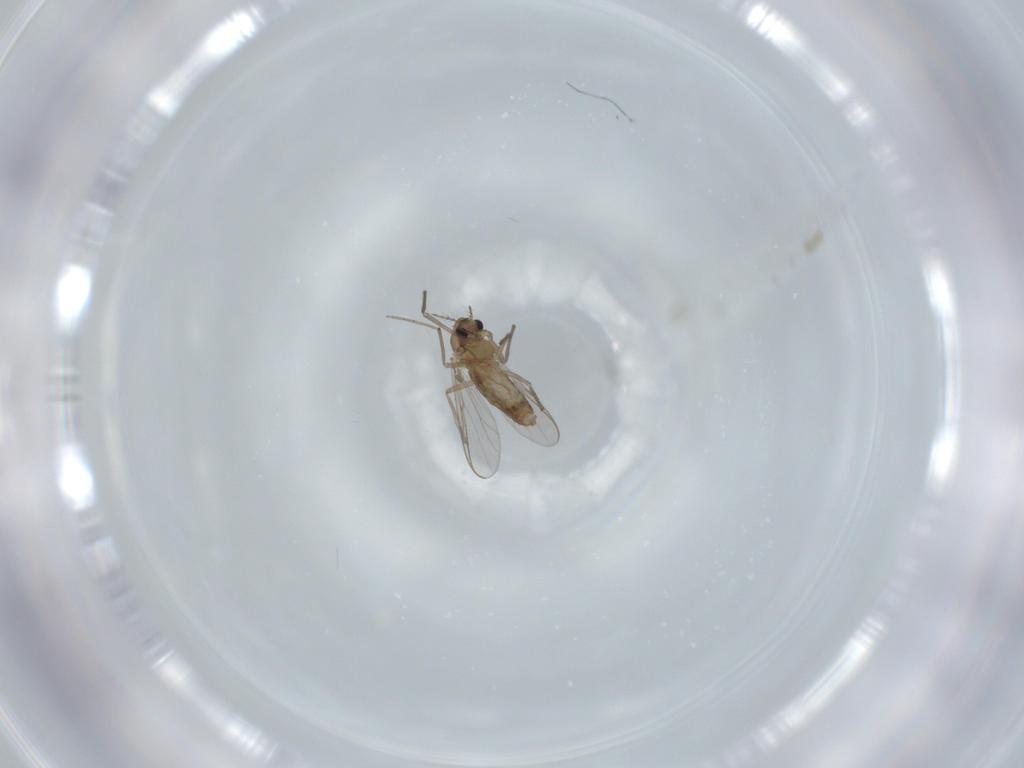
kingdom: Animalia
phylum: Arthropoda
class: Insecta
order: Diptera
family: Chironomidae
